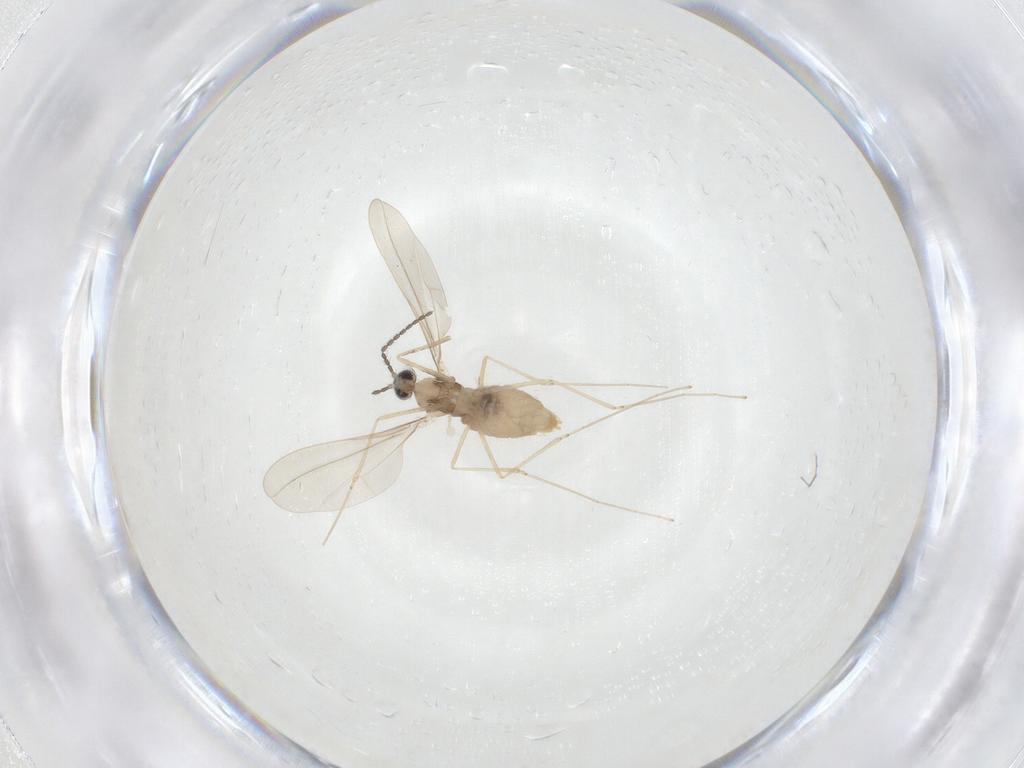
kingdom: Animalia
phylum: Arthropoda
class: Insecta
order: Diptera
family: Cecidomyiidae
